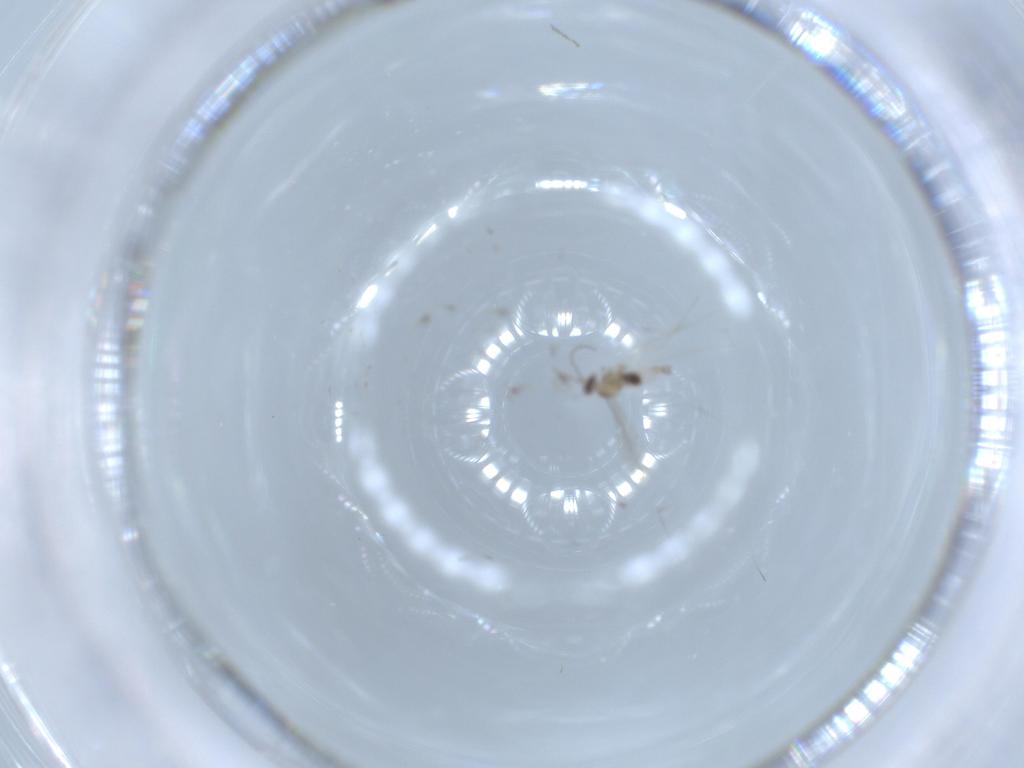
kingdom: Animalia
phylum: Arthropoda
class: Insecta
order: Diptera
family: Cecidomyiidae
